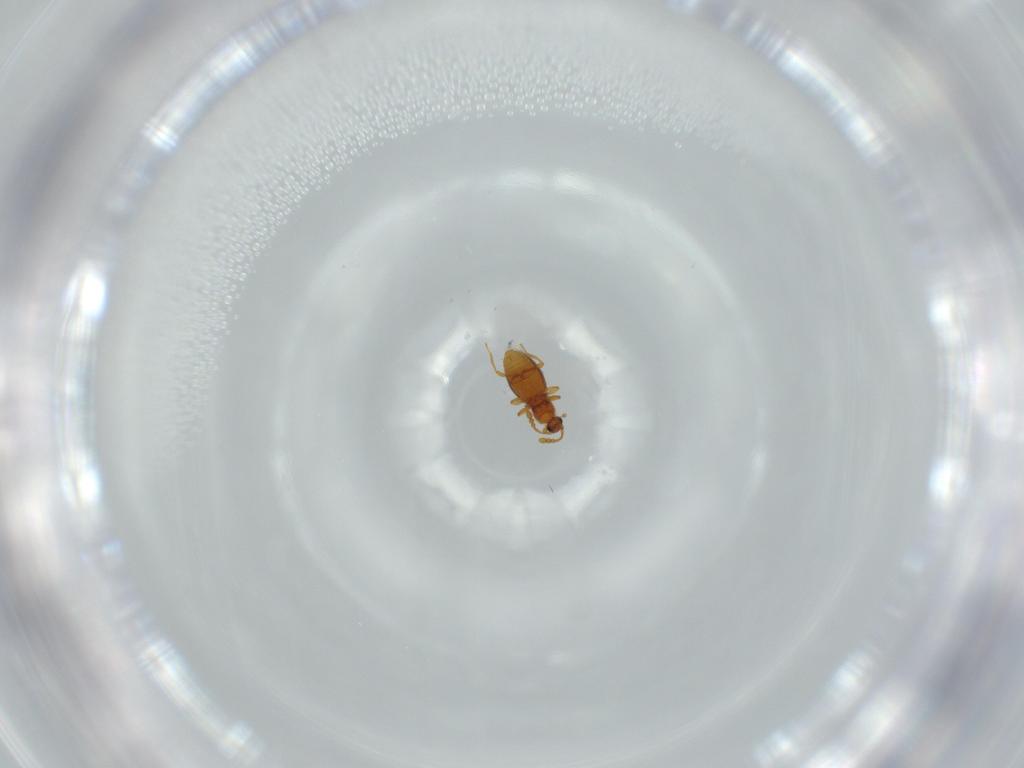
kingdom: Animalia
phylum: Arthropoda
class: Insecta
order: Coleoptera
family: Staphylinidae
